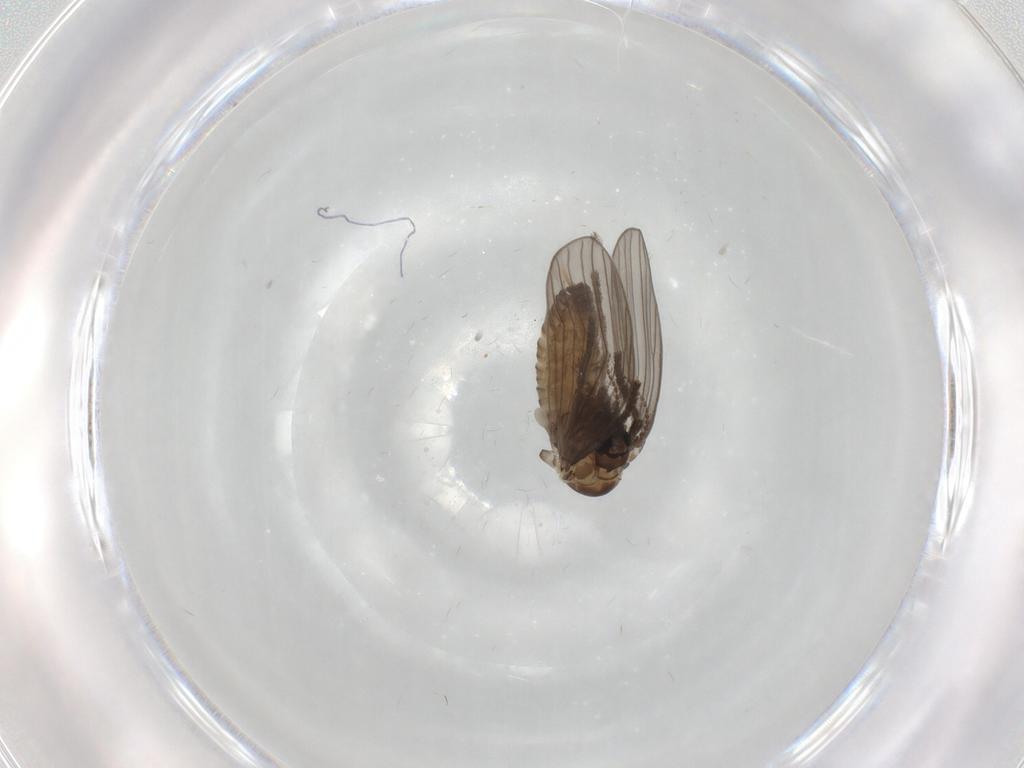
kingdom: Animalia
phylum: Arthropoda
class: Insecta
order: Diptera
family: Psychodidae
